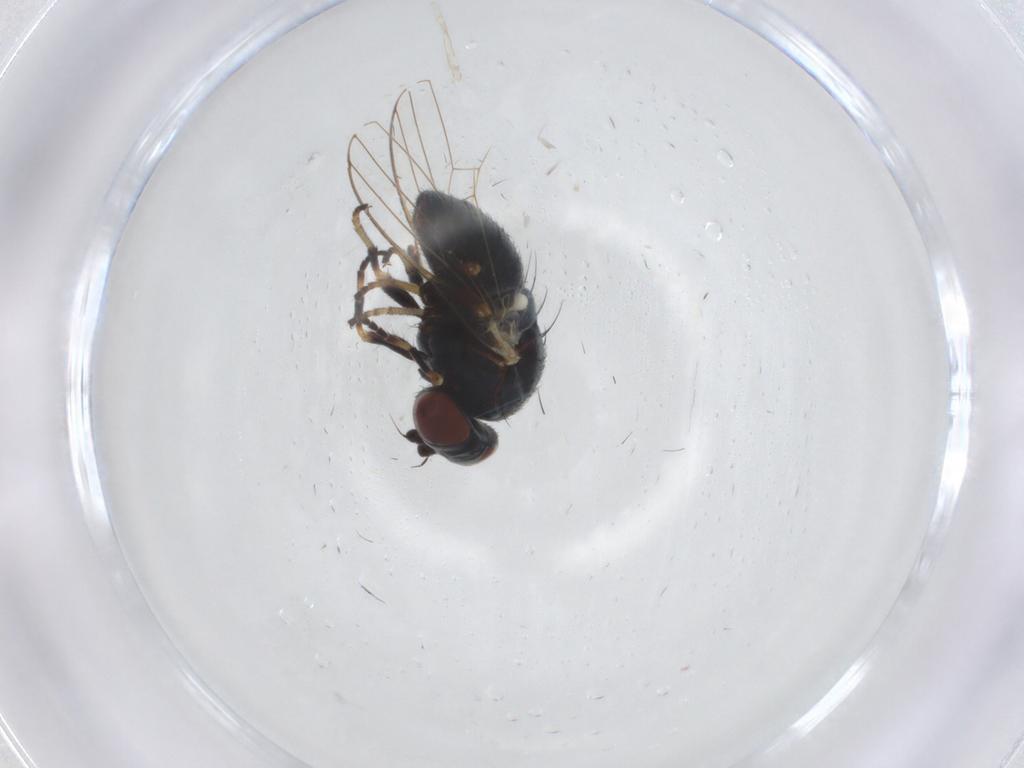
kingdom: Animalia
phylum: Arthropoda
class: Insecta
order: Diptera
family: Chamaemyiidae
